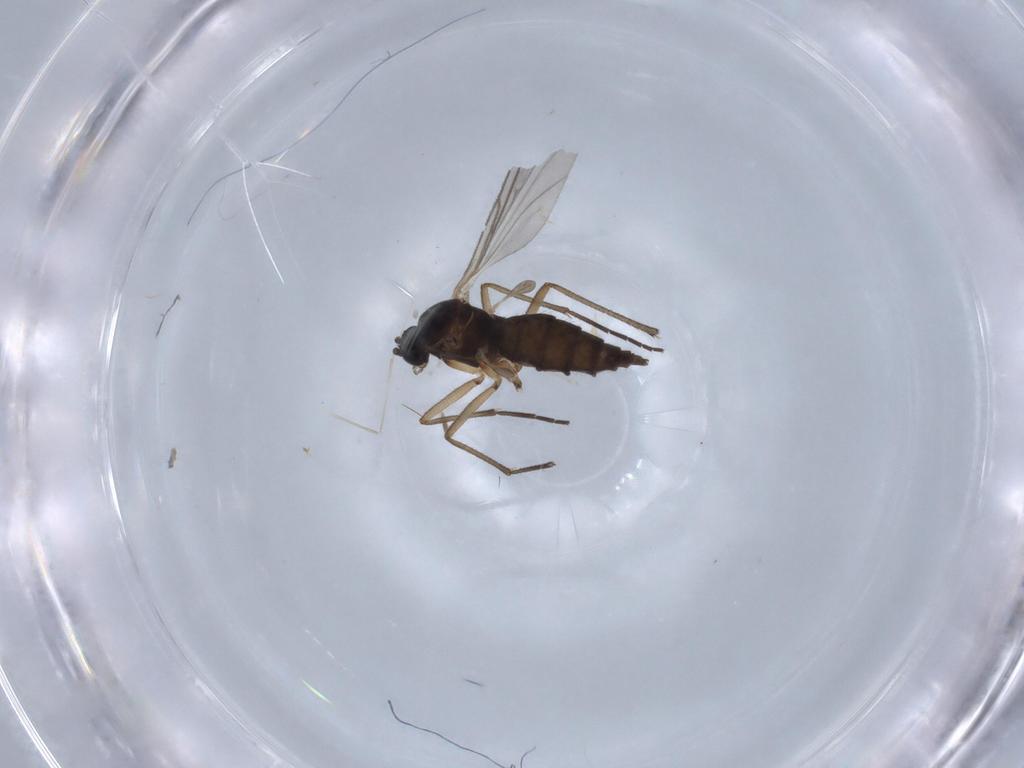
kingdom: Animalia
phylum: Arthropoda
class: Insecta
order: Diptera
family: Sciaridae
